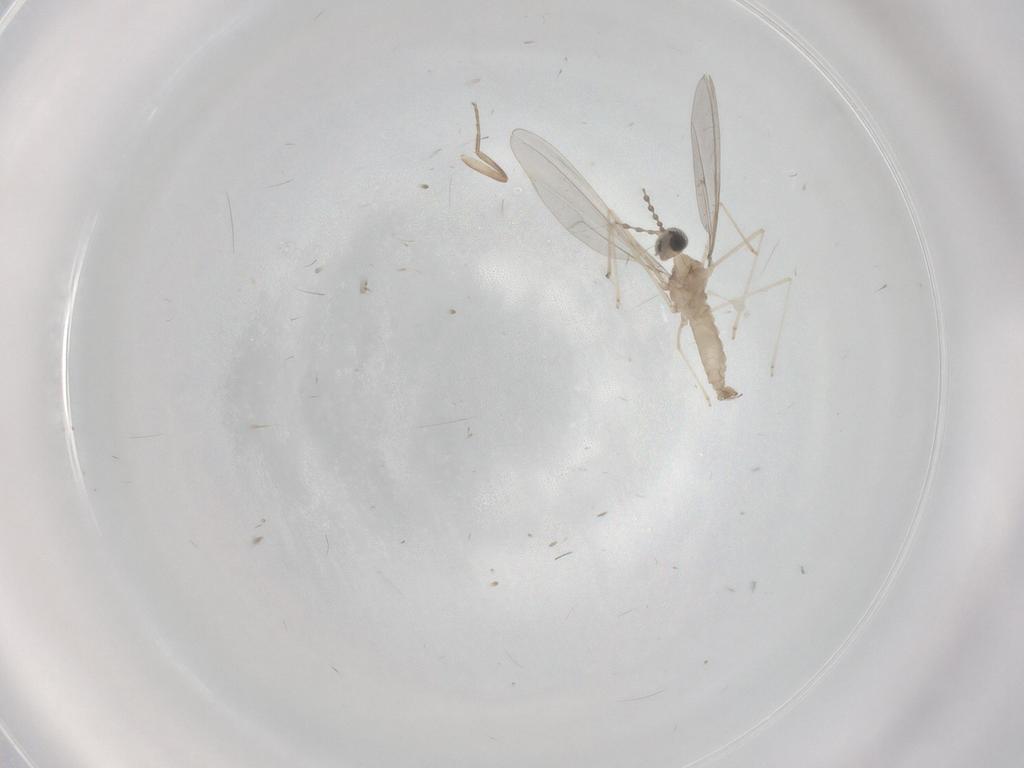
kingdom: Animalia
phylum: Arthropoda
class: Insecta
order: Diptera
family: Cecidomyiidae
